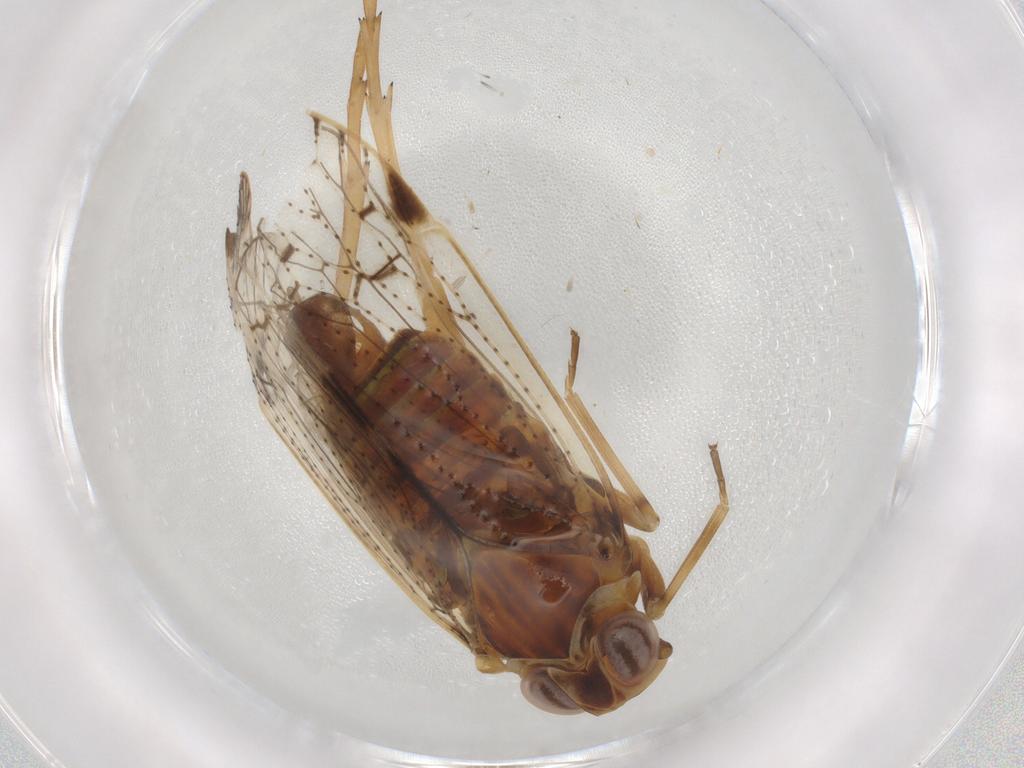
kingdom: Animalia
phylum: Arthropoda
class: Insecta
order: Hemiptera
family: Cixiidae
